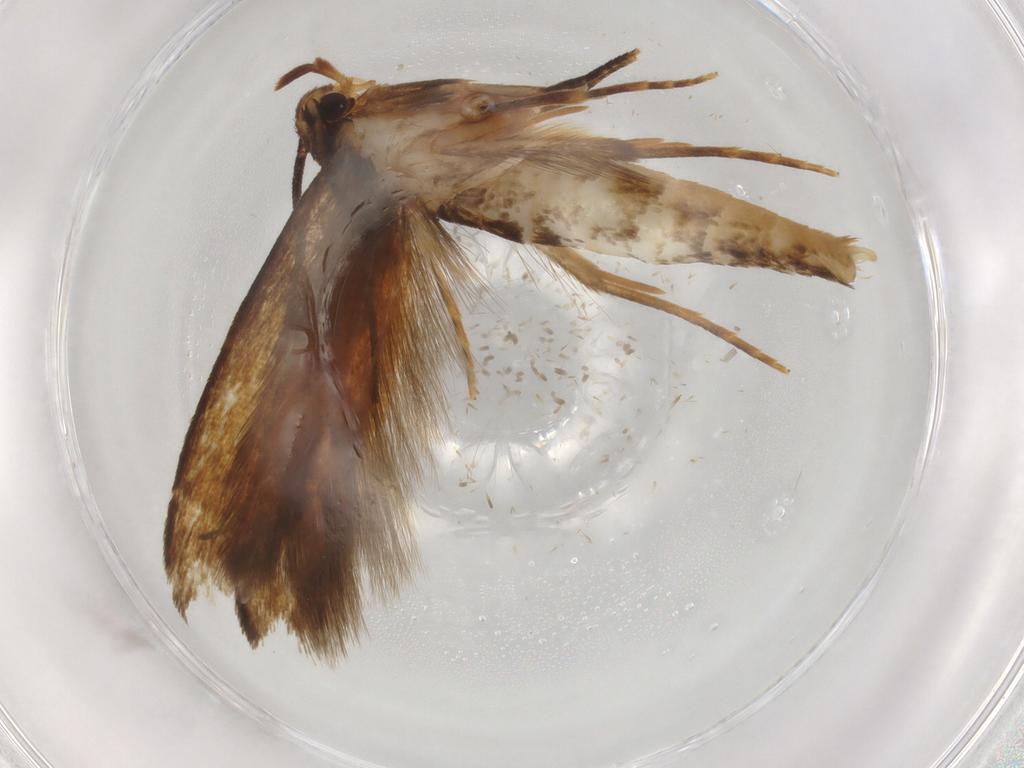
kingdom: Animalia
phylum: Arthropoda
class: Insecta
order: Lepidoptera
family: Tineidae
